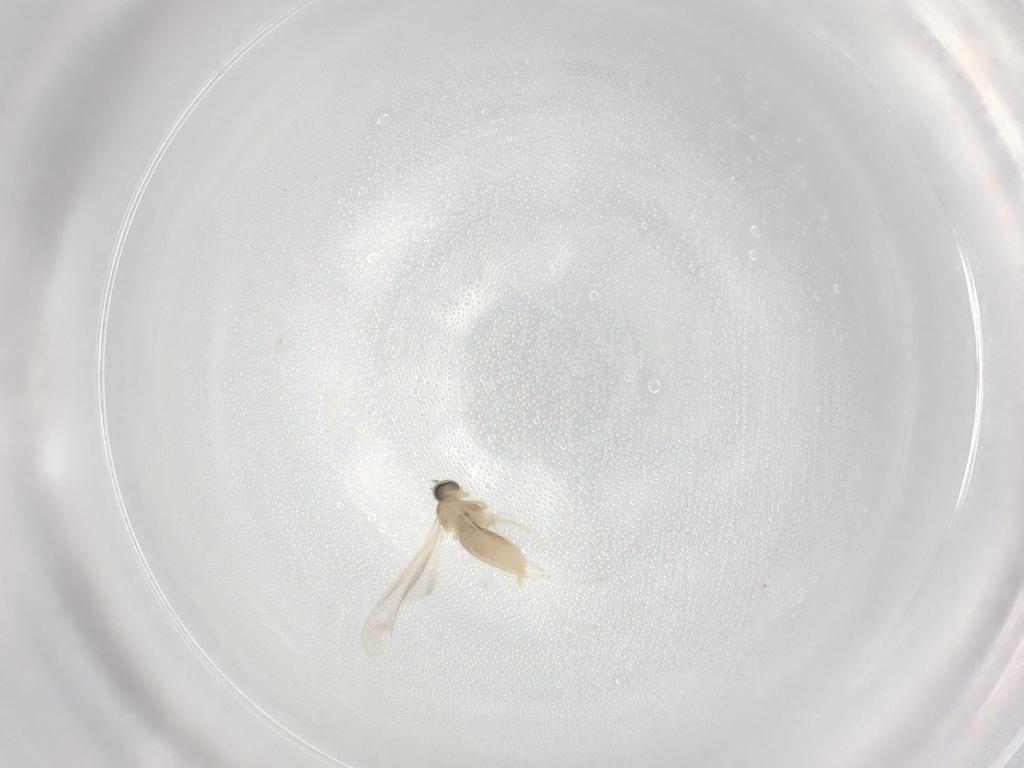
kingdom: Animalia
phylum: Arthropoda
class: Insecta
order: Diptera
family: Cecidomyiidae
